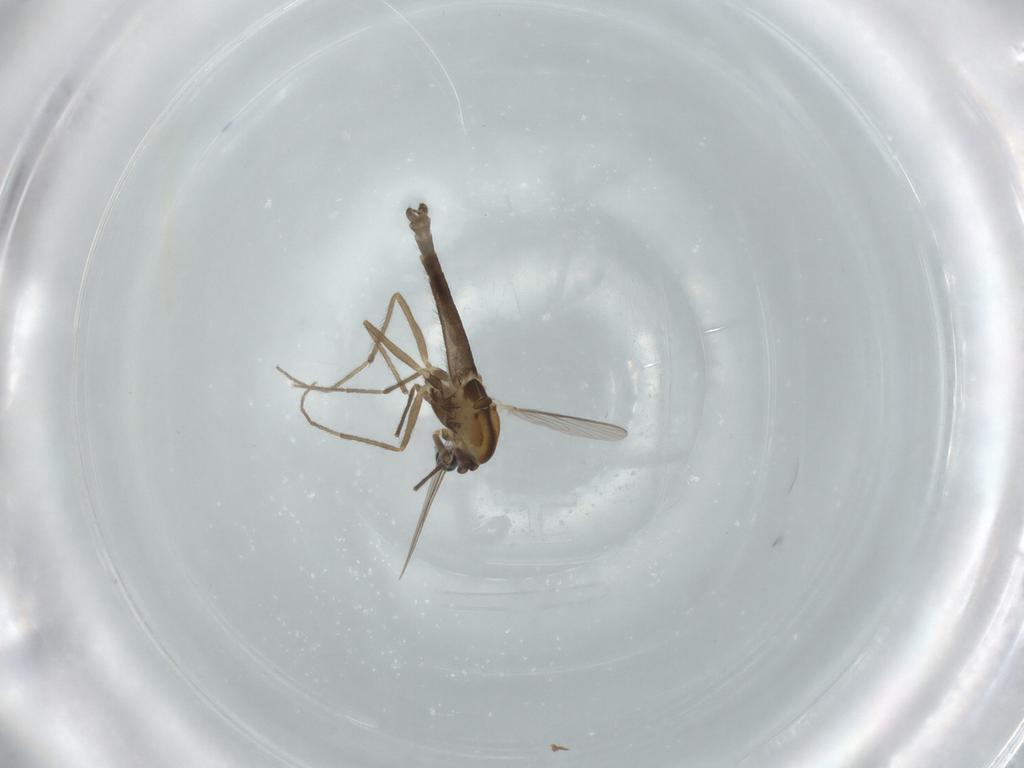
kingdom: Animalia
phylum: Arthropoda
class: Insecta
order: Diptera
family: Chironomidae
